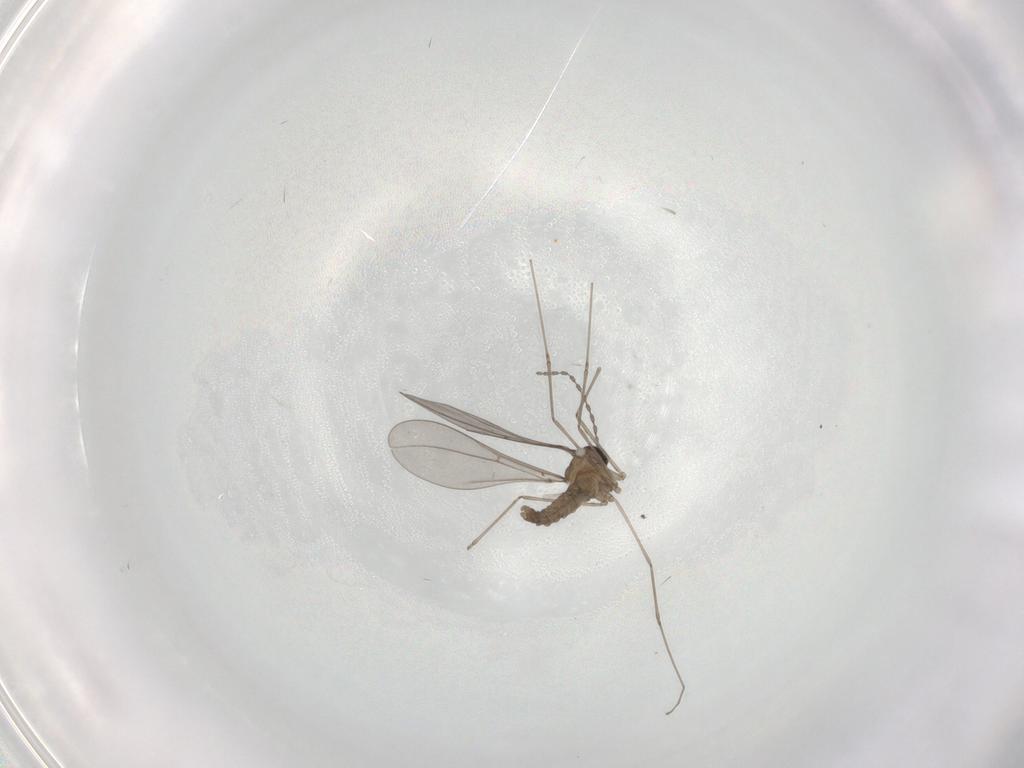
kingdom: Animalia
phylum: Arthropoda
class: Insecta
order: Diptera
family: Cecidomyiidae
